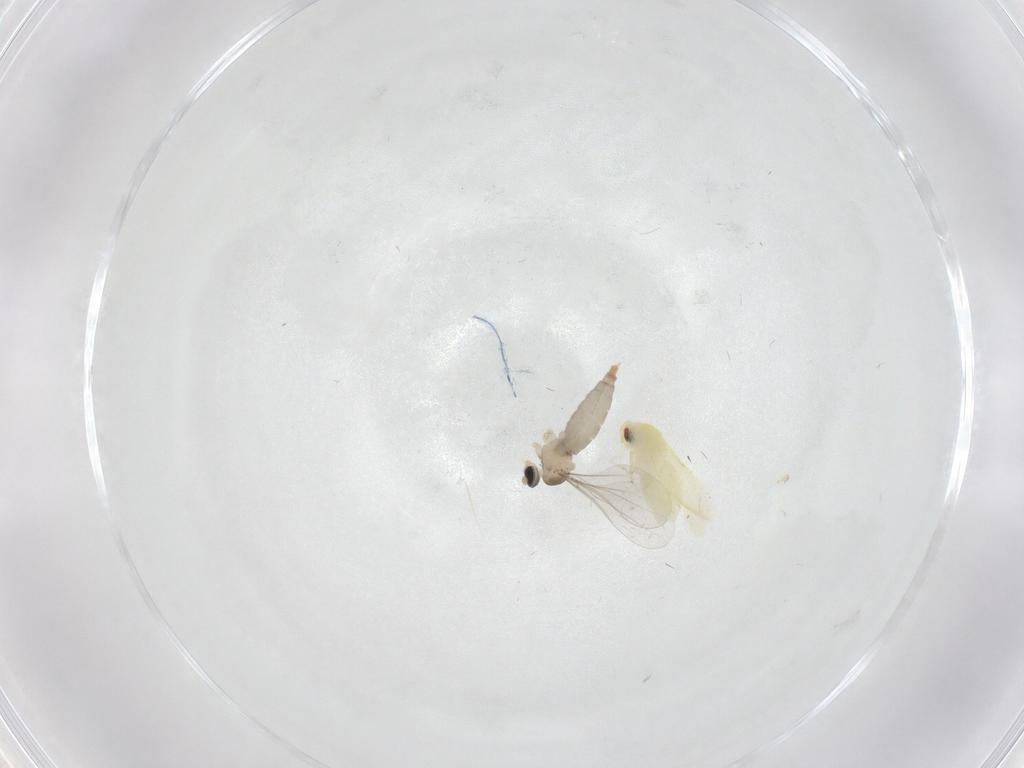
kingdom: Animalia
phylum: Arthropoda
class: Insecta
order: Diptera
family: Cecidomyiidae
